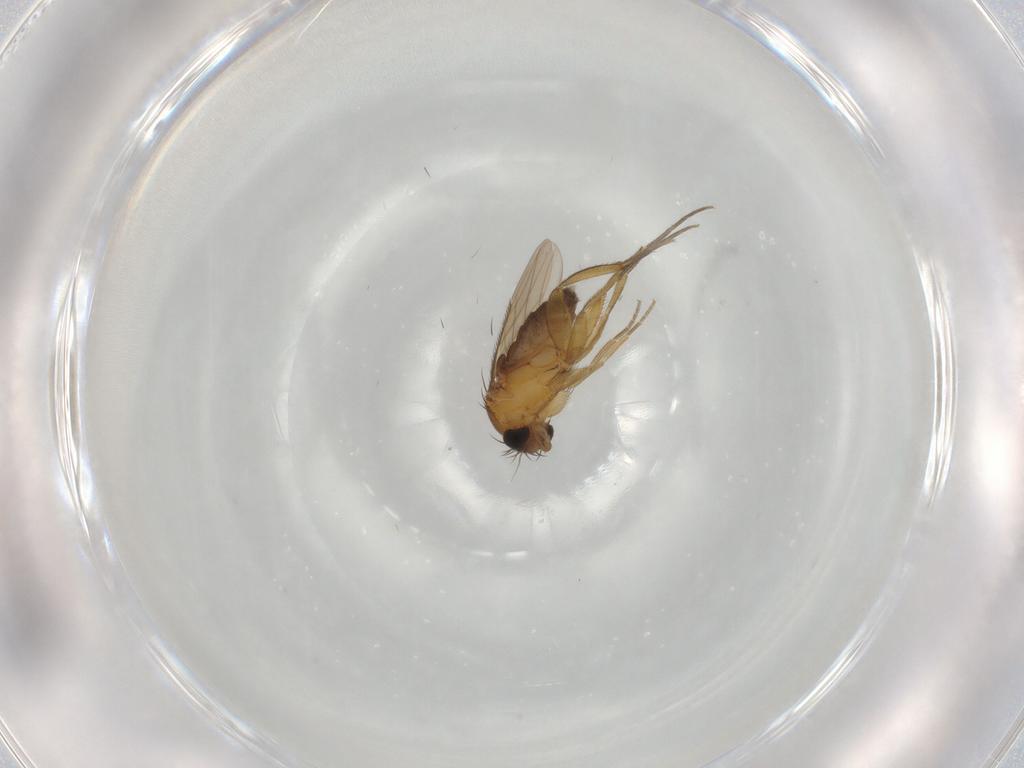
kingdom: Animalia
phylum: Arthropoda
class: Insecta
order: Diptera
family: Phoridae
